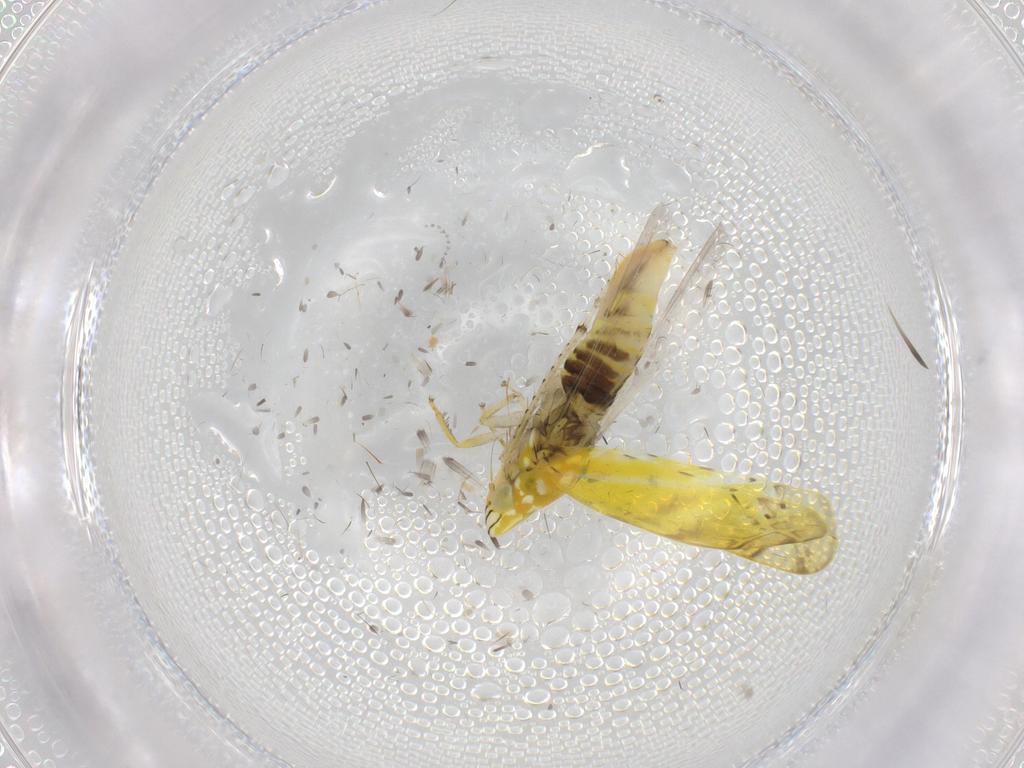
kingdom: Animalia
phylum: Arthropoda
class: Insecta
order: Hemiptera
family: Cicadellidae
